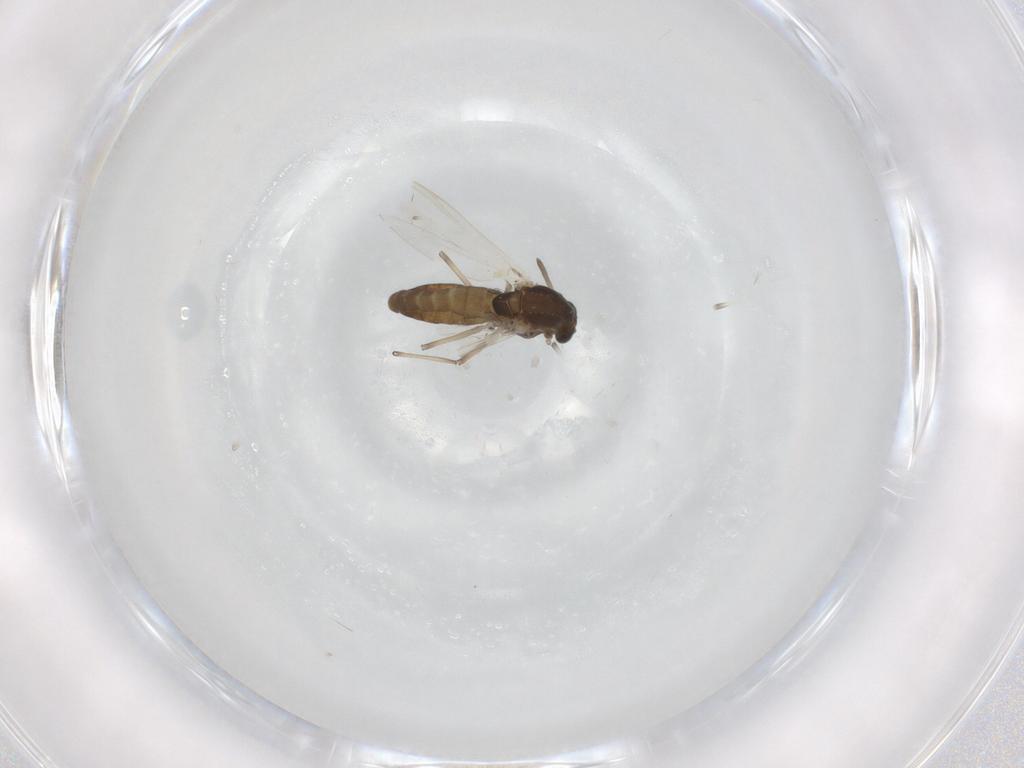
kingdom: Animalia
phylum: Arthropoda
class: Insecta
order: Diptera
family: Chironomidae
